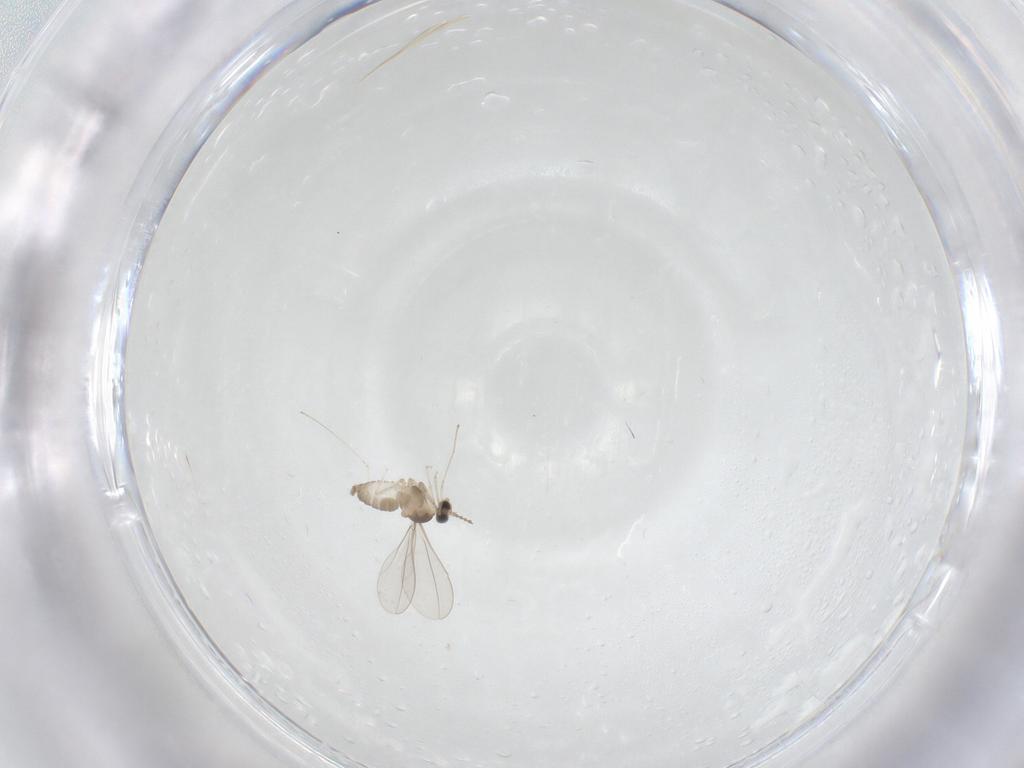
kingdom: Animalia
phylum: Arthropoda
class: Insecta
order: Diptera
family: Cecidomyiidae
